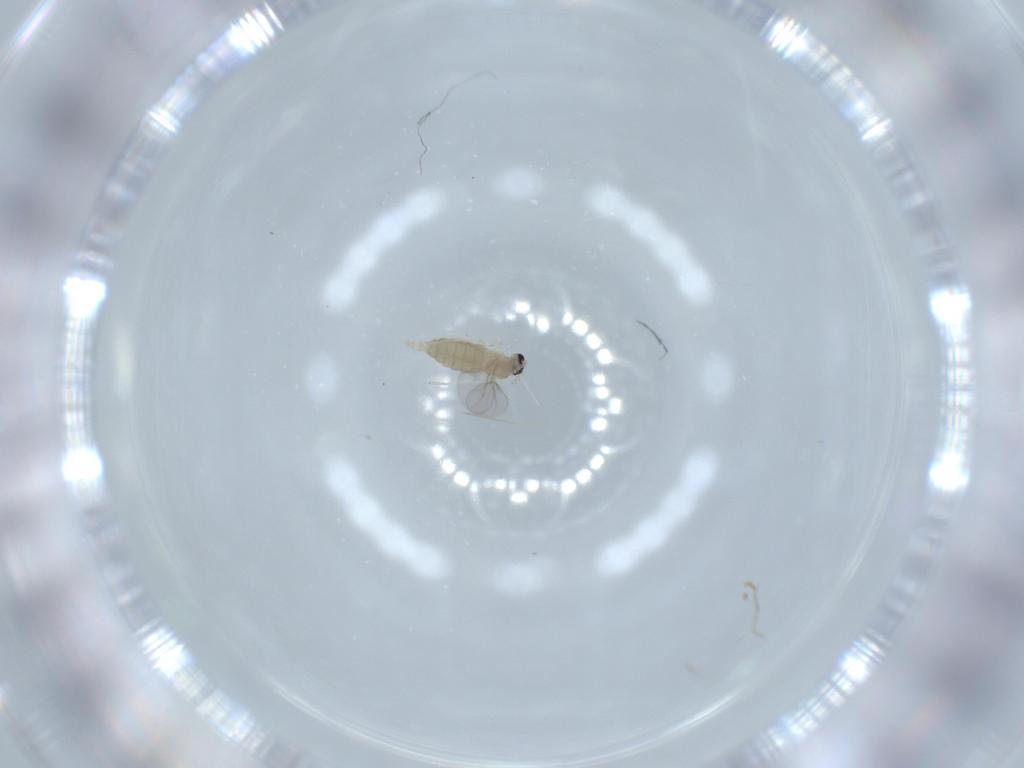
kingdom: Animalia
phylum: Arthropoda
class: Insecta
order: Diptera
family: Cecidomyiidae
